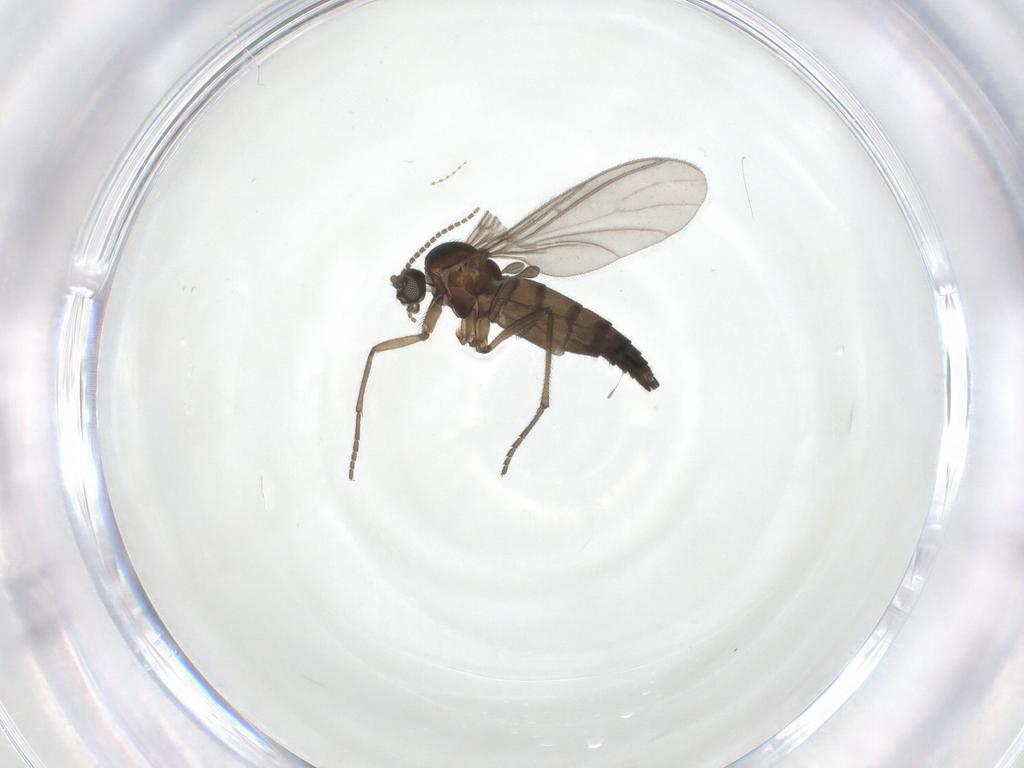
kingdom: Animalia
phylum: Arthropoda
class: Insecta
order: Diptera
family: Sciaridae
